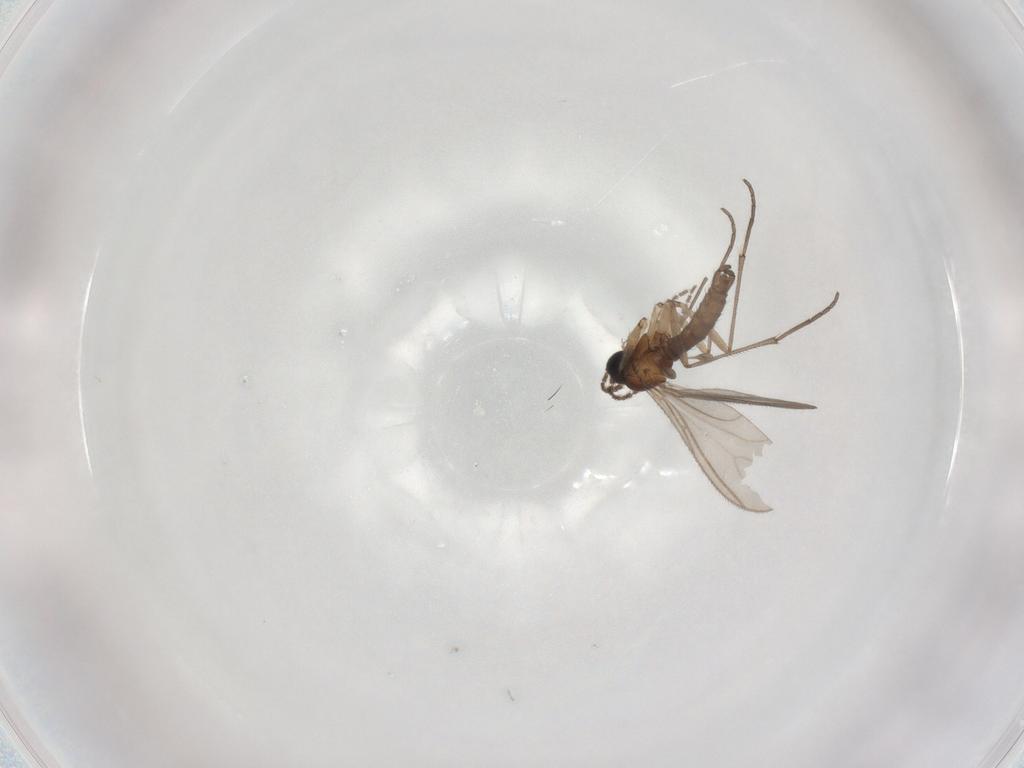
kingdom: Animalia
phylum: Arthropoda
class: Insecta
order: Diptera
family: Sciaridae
